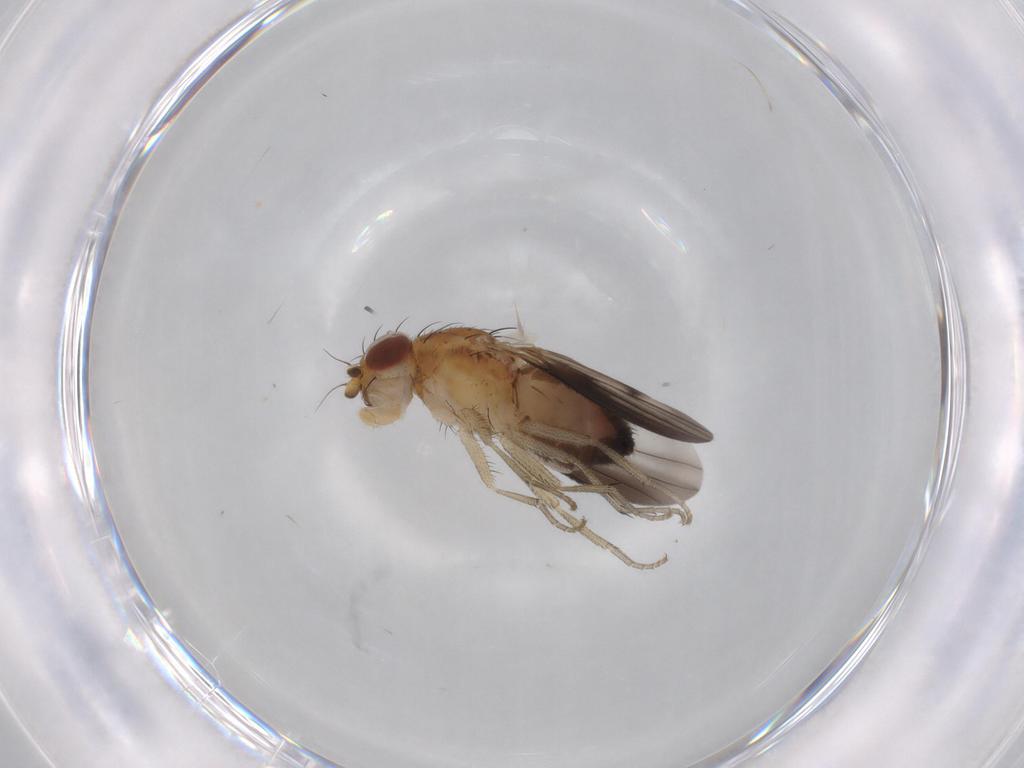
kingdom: Animalia
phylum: Arthropoda
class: Insecta
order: Diptera
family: Heleomyzidae
